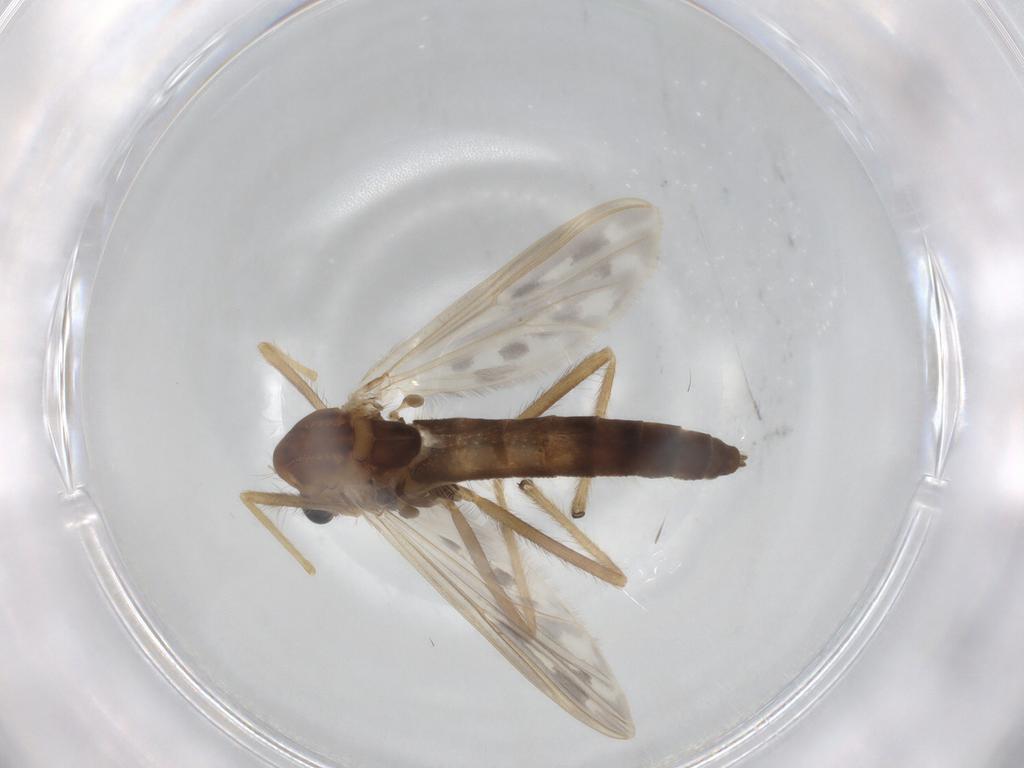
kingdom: Animalia
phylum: Arthropoda
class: Insecta
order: Diptera
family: Chironomidae
